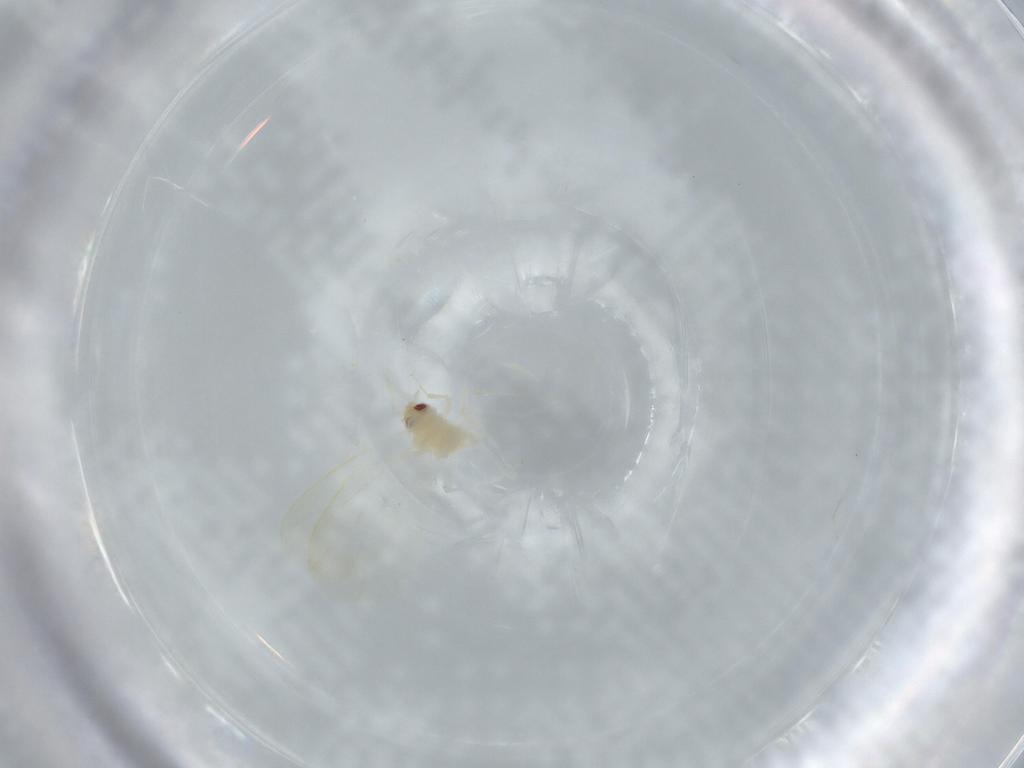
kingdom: Animalia
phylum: Arthropoda
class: Insecta
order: Hemiptera
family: Aleyrodidae
